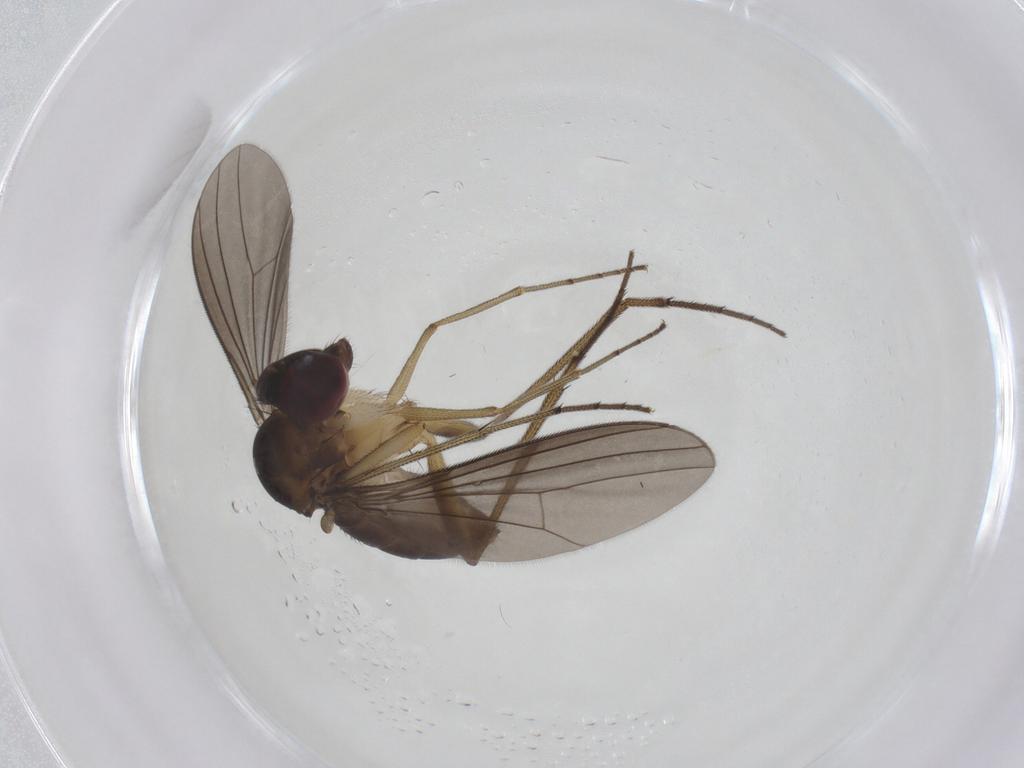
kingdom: Animalia
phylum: Arthropoda
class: Insecta
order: Diptera
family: Dolichopodidae
